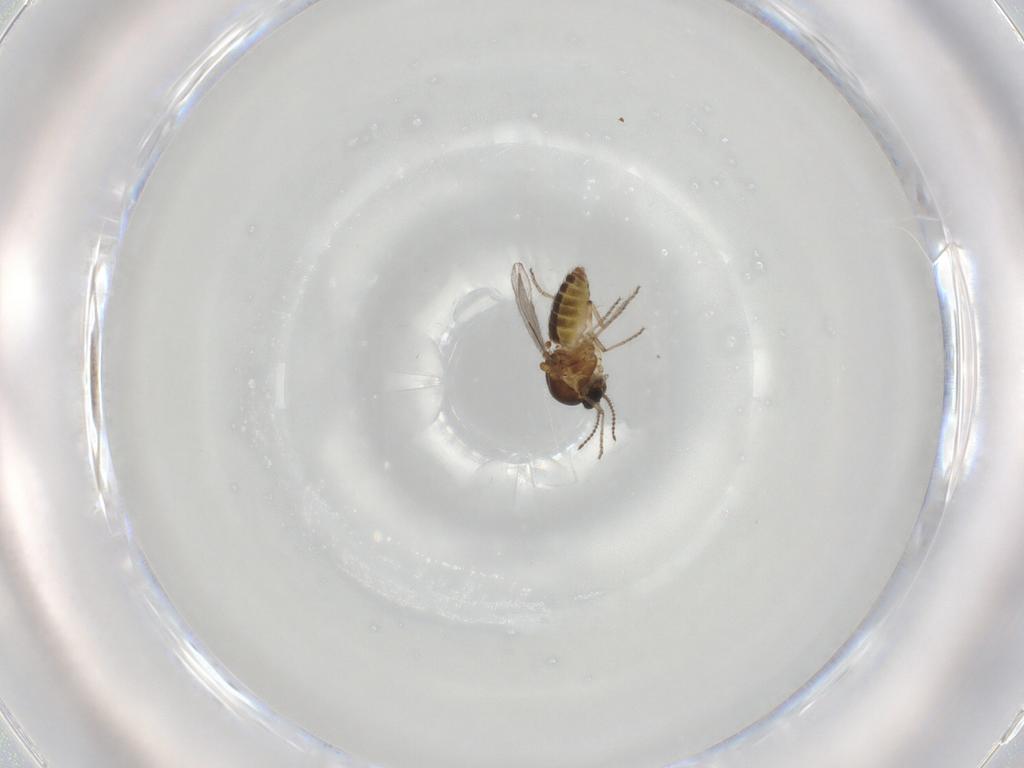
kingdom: Animalia
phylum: Arthropoda
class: Insecta
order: Diptera
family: Ceratopogonidae
